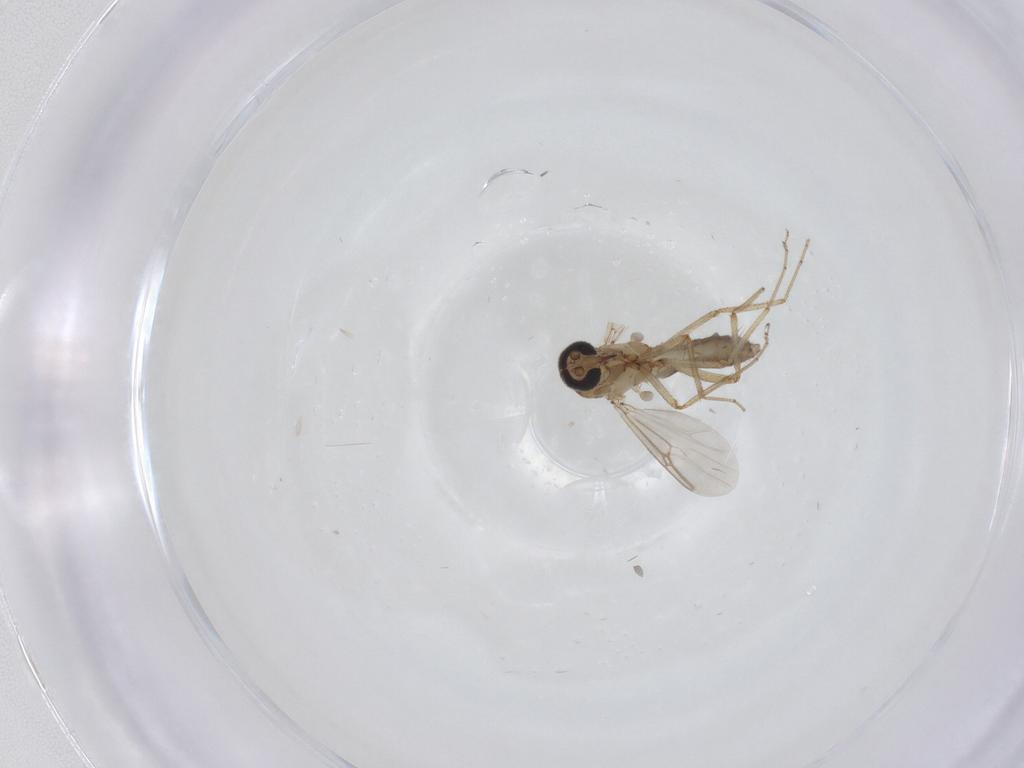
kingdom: Animalia
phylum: Arthropoda
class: Insecta
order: Diptera
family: Ceratopogonidae
